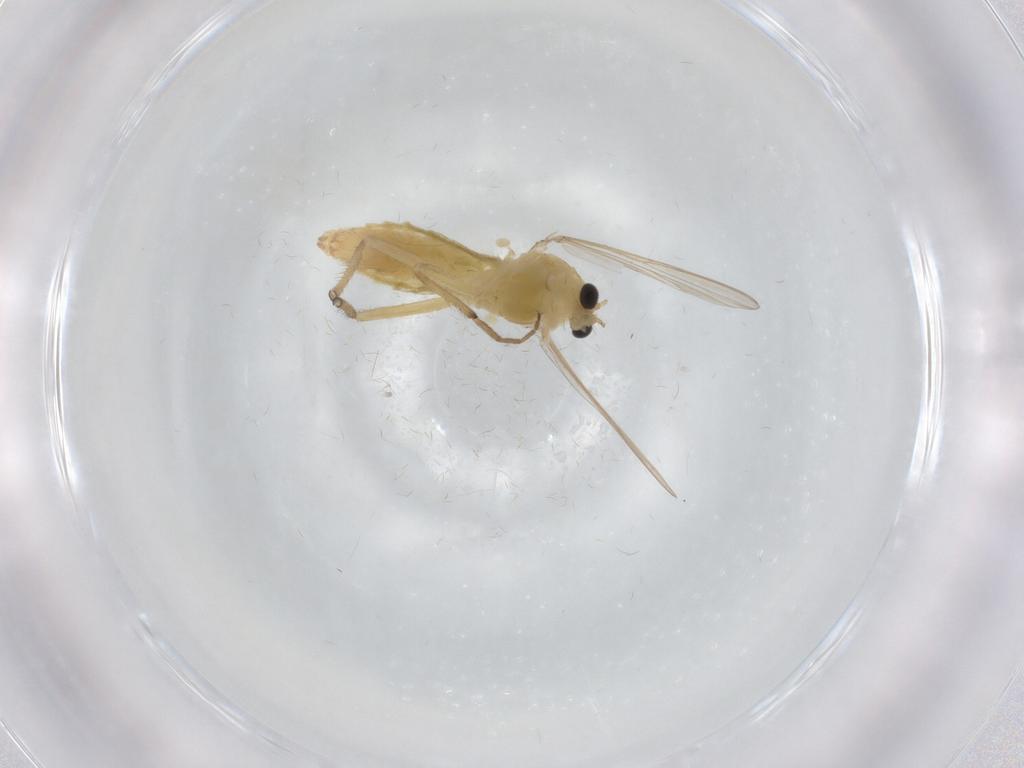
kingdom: Animalia
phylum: Arthropoda
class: Insecta
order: Diptera
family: Chironomidae
